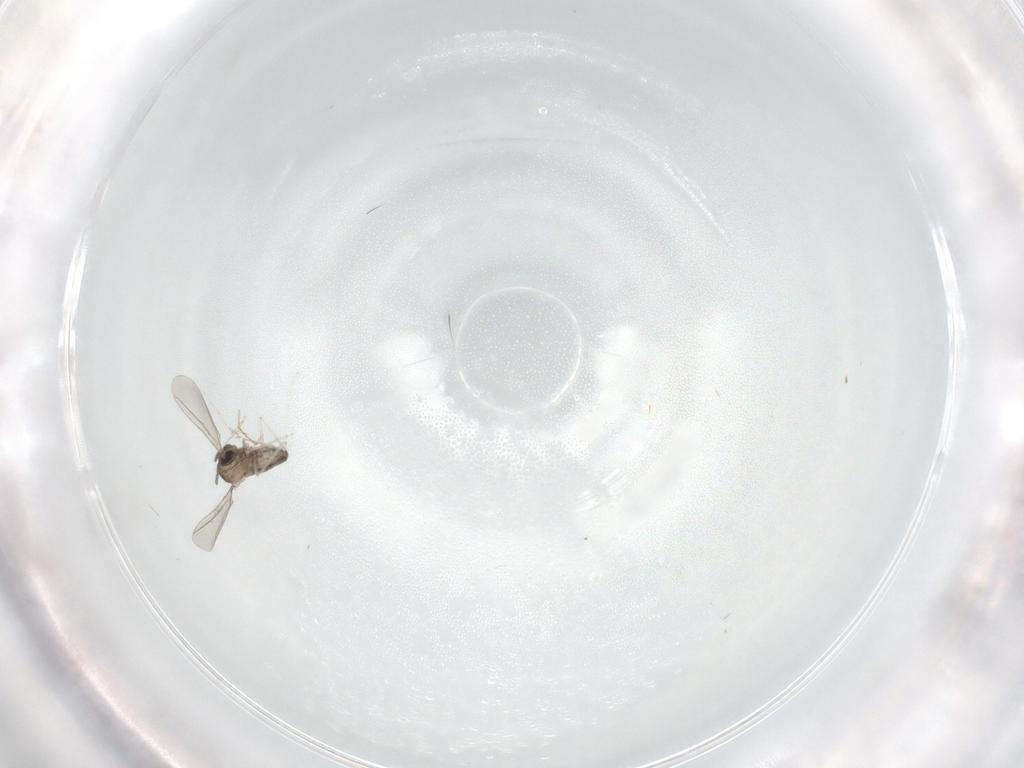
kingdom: Animalia
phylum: Arthropoda
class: Insecta
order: Diptera
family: Cecidomyiidae
